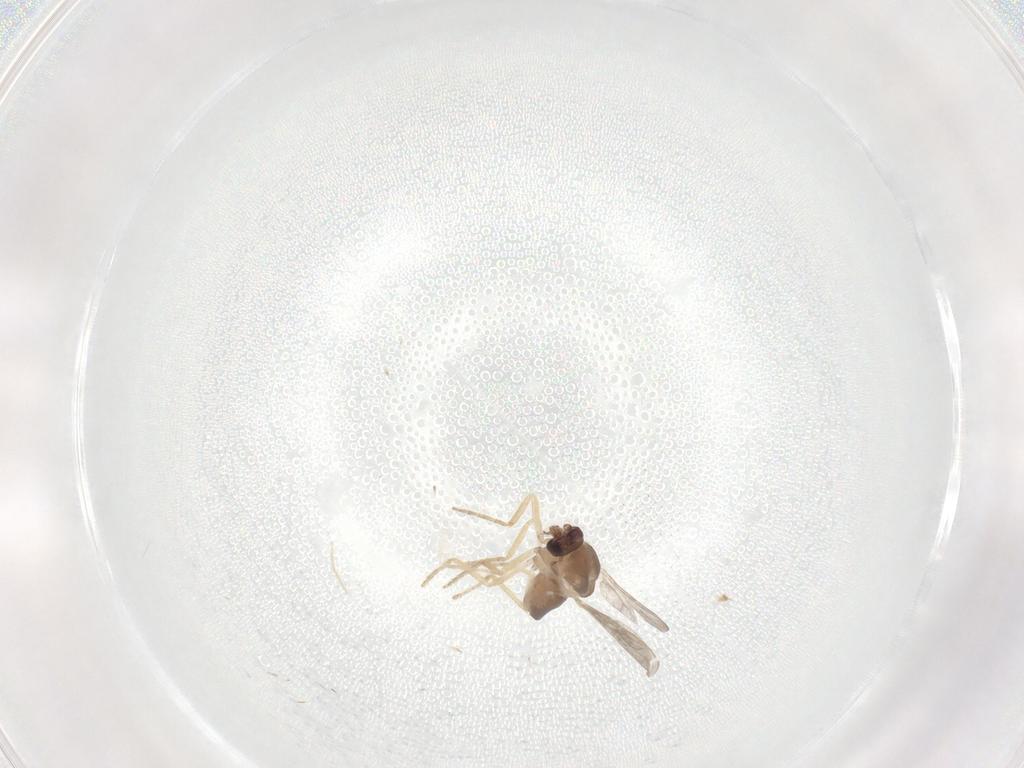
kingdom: Animalia
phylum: Arthropoda
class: Insecta
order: Diptera
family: Ceratopogonidae
